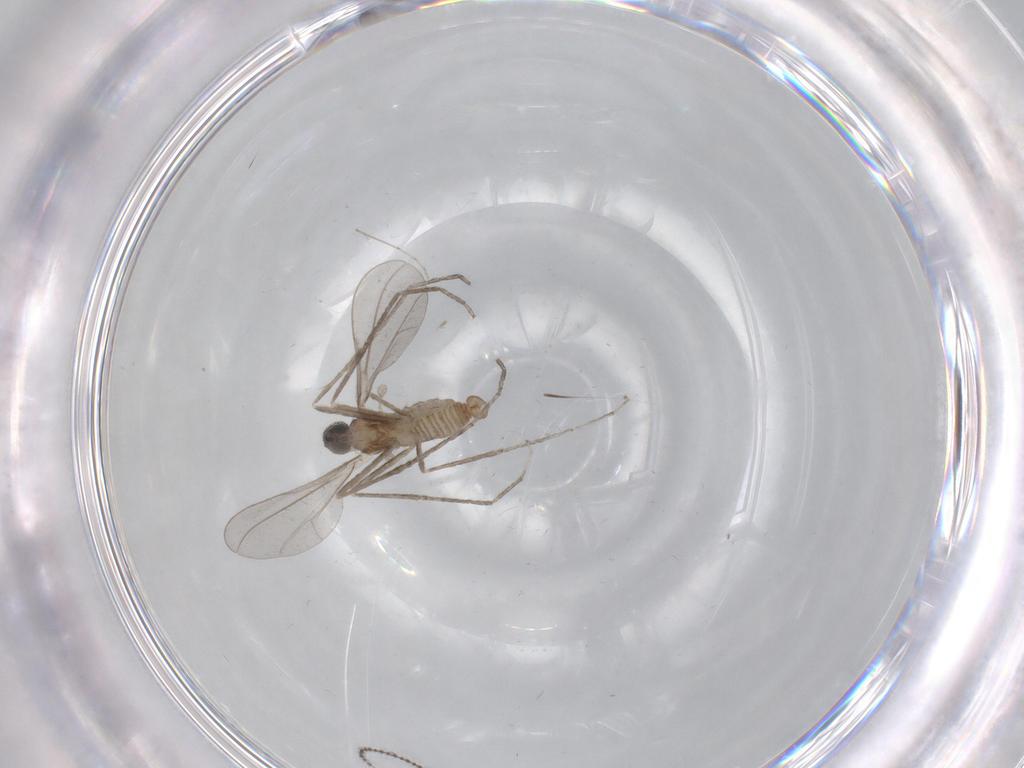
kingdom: Animalia
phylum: Arthropoda
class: Insecta
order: Diptera
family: Cecidomyiidae
